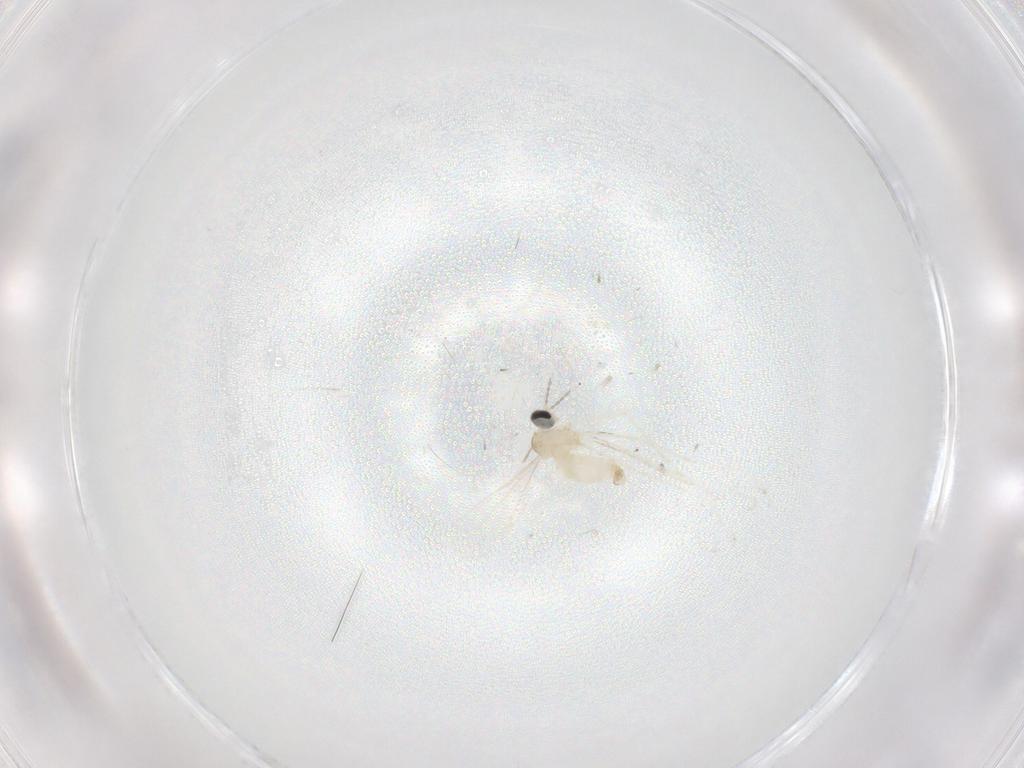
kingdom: Animalia
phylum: Arthropoda
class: Insecta
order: Diptera
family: Cecidomyiidae
